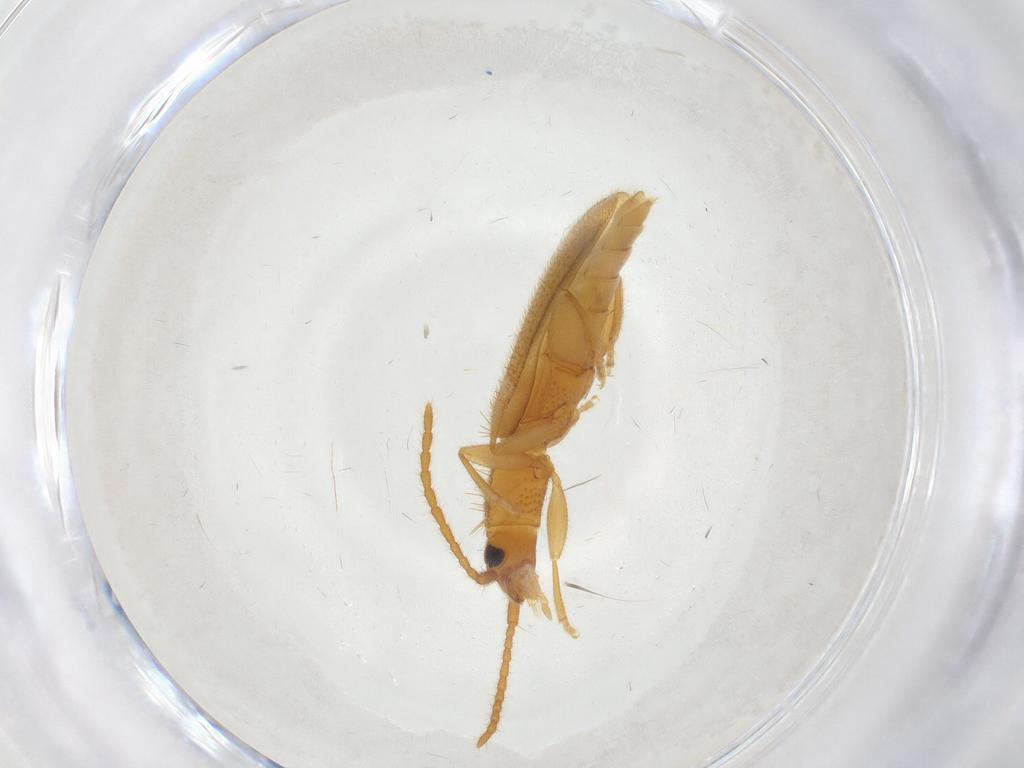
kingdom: Animalia
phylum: Arthropoda
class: Insecta
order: Coleoptera
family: Silvanidae
